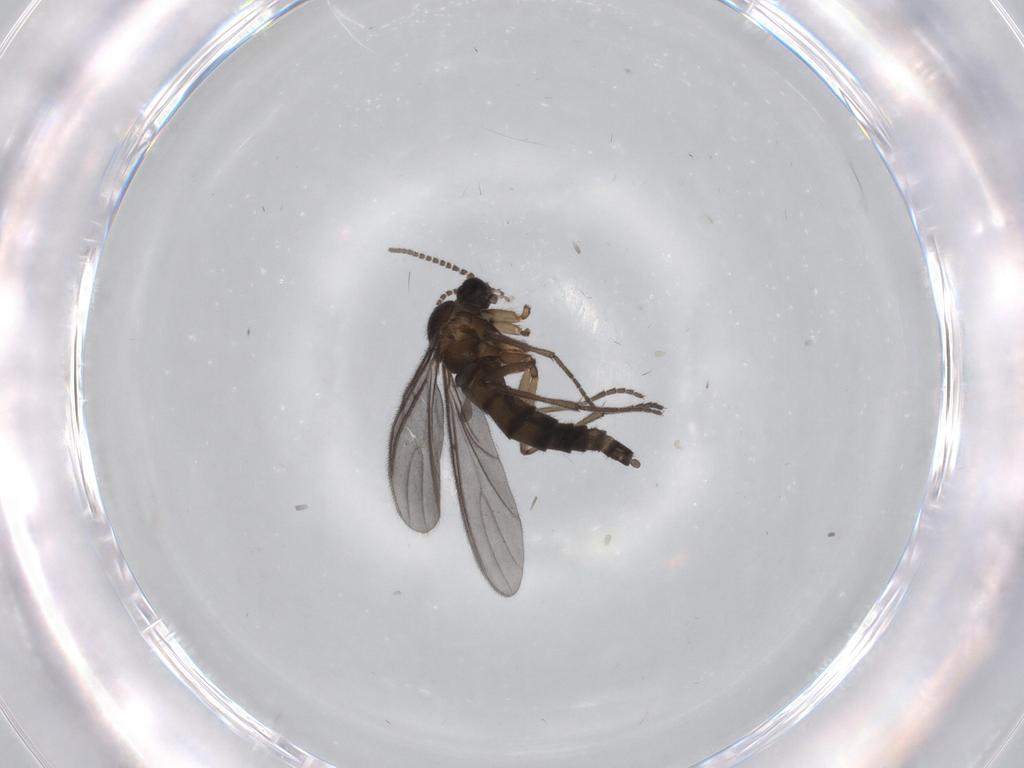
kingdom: Animalia
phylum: Arthropoda
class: Insecta
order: Diptera
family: Sciaridae
